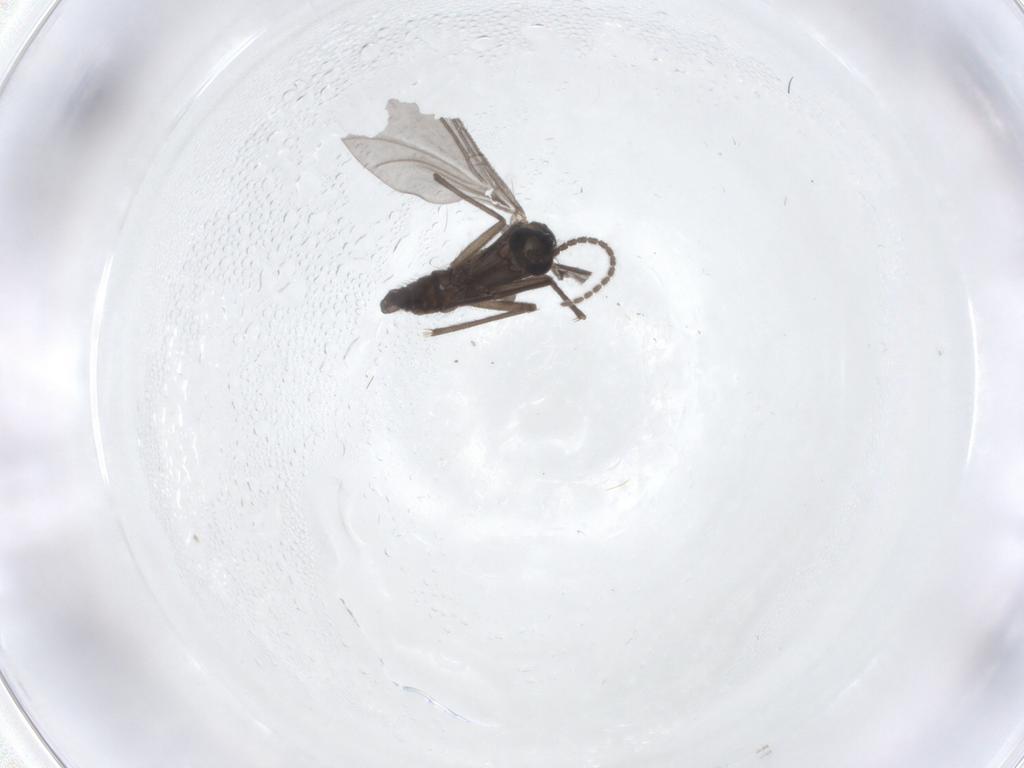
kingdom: Animalia
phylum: Arthropoda
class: Insecta
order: Diptera
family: Sciaridae
